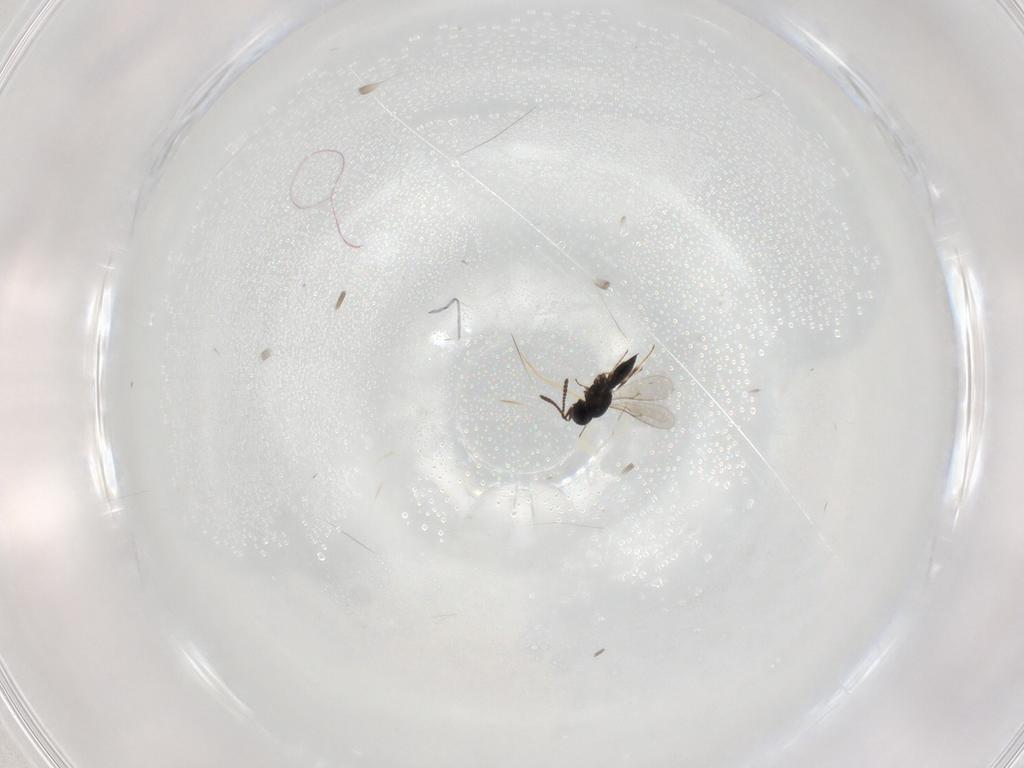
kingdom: Animalia
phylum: Arthropoda
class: Insecta
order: Hymenoptera
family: Scelionidae
